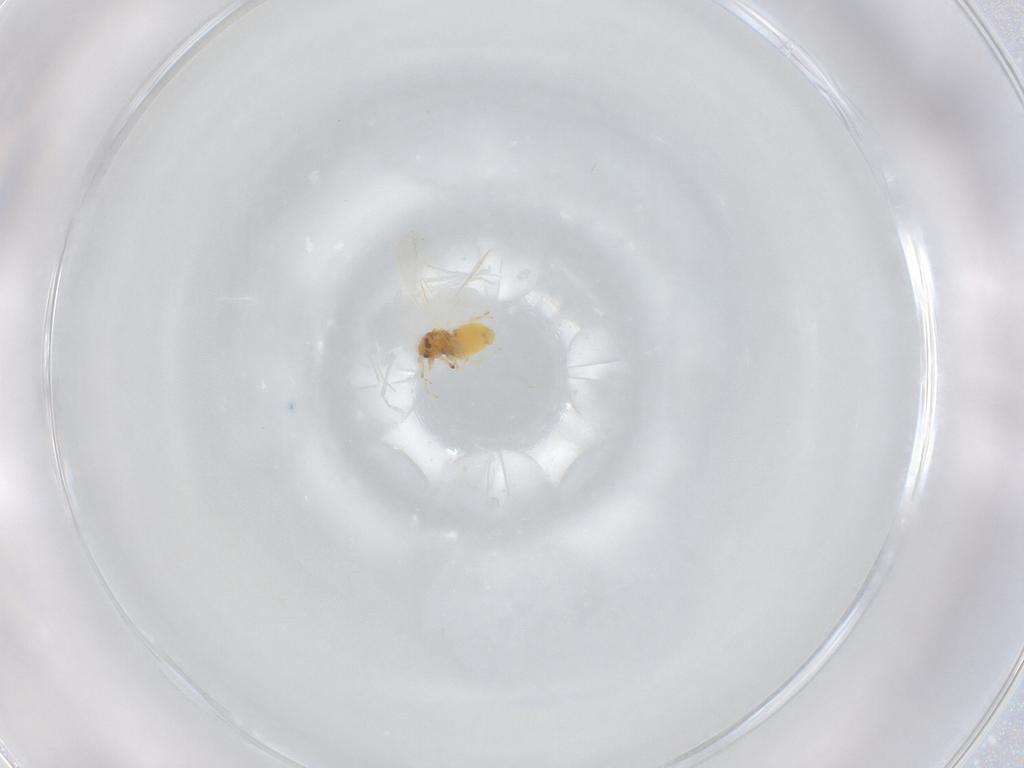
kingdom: Animalia
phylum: Arthropoda
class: Insecta
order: Hemiptera
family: Aleyrodidae
